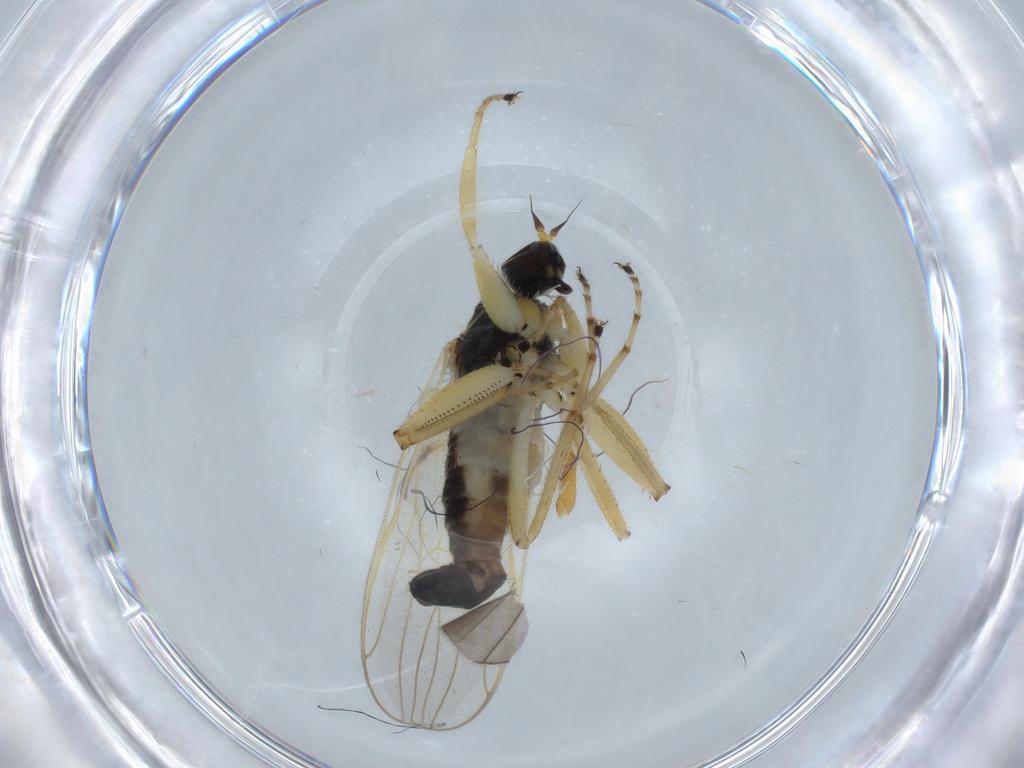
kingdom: Animalia
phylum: Arthropoda
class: Insecta
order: Diptera
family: Hybotidae
